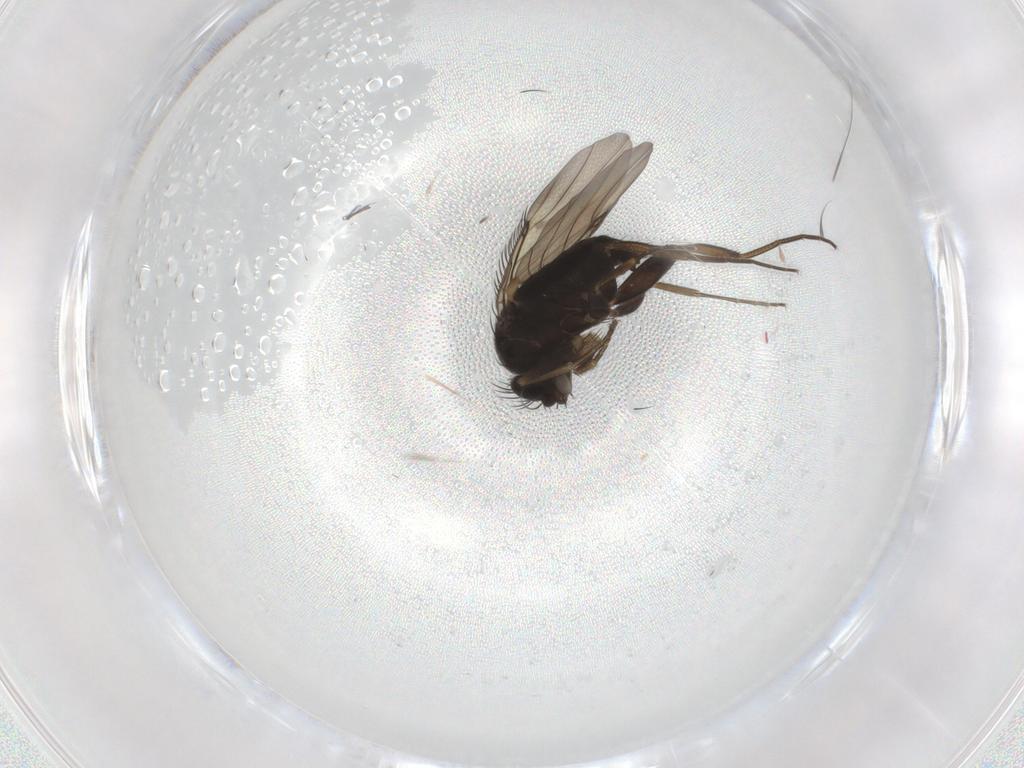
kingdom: Animalia
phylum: Arthropoda
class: Insecta
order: Diptera
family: Phoridae
